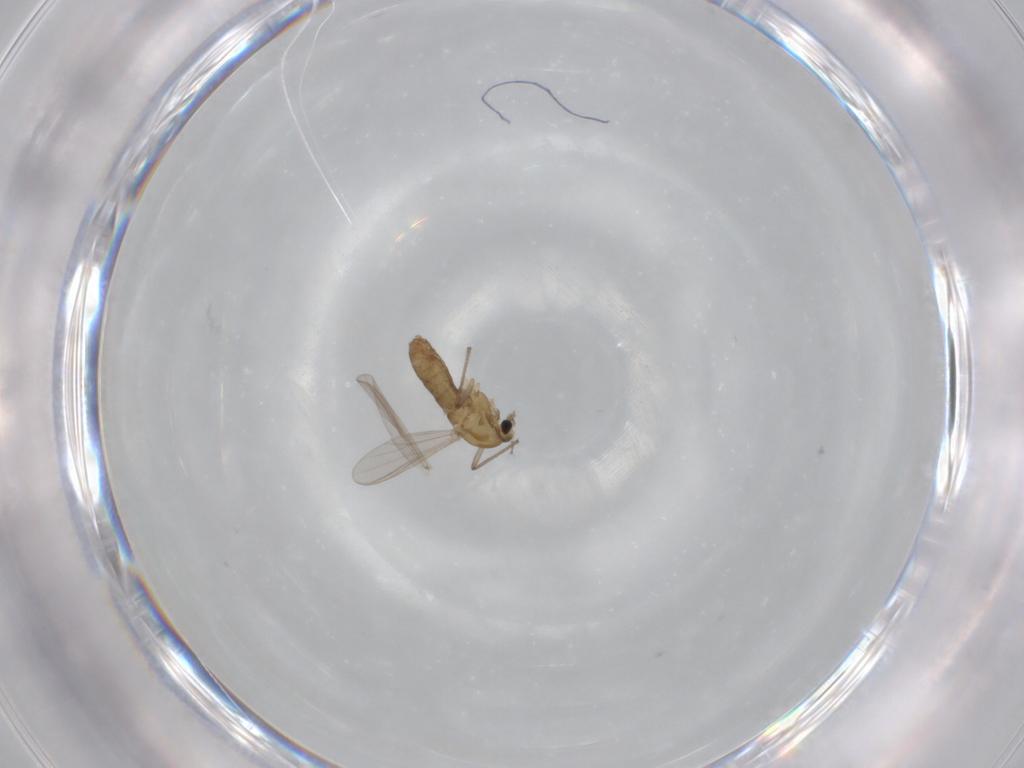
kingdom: Animalia
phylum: Arthropoda
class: Insecta
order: Diptera
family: Chironomidae
